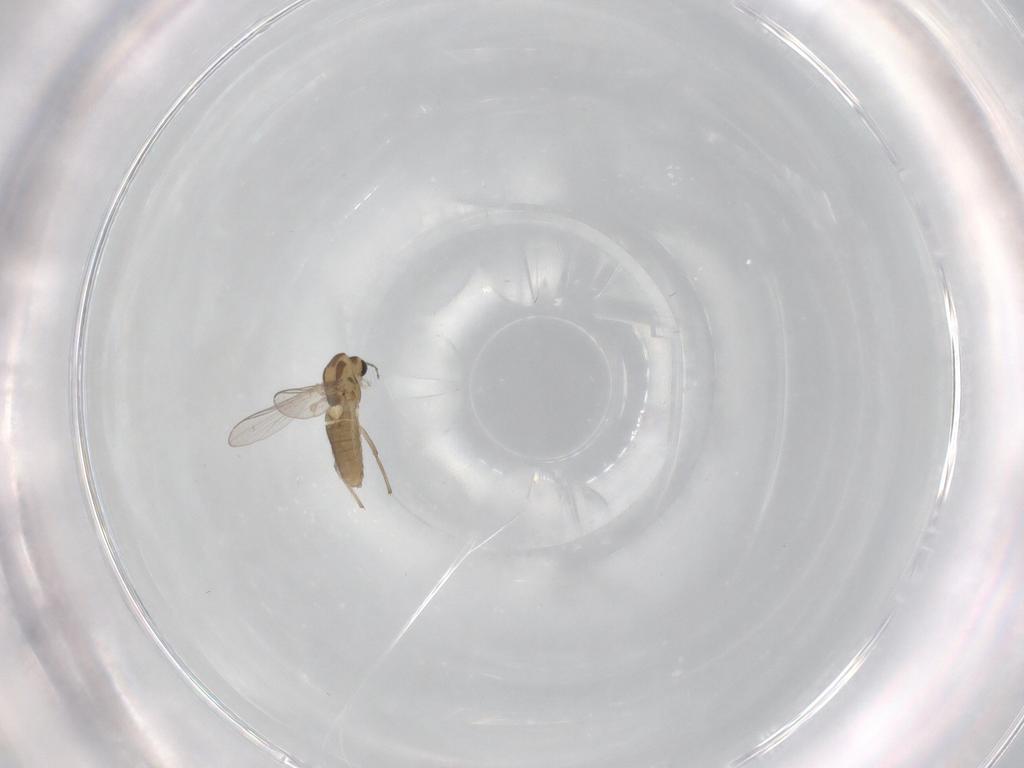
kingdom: Animalia
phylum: Arthropoda
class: Insecta
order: Diptera
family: Chironomidae
